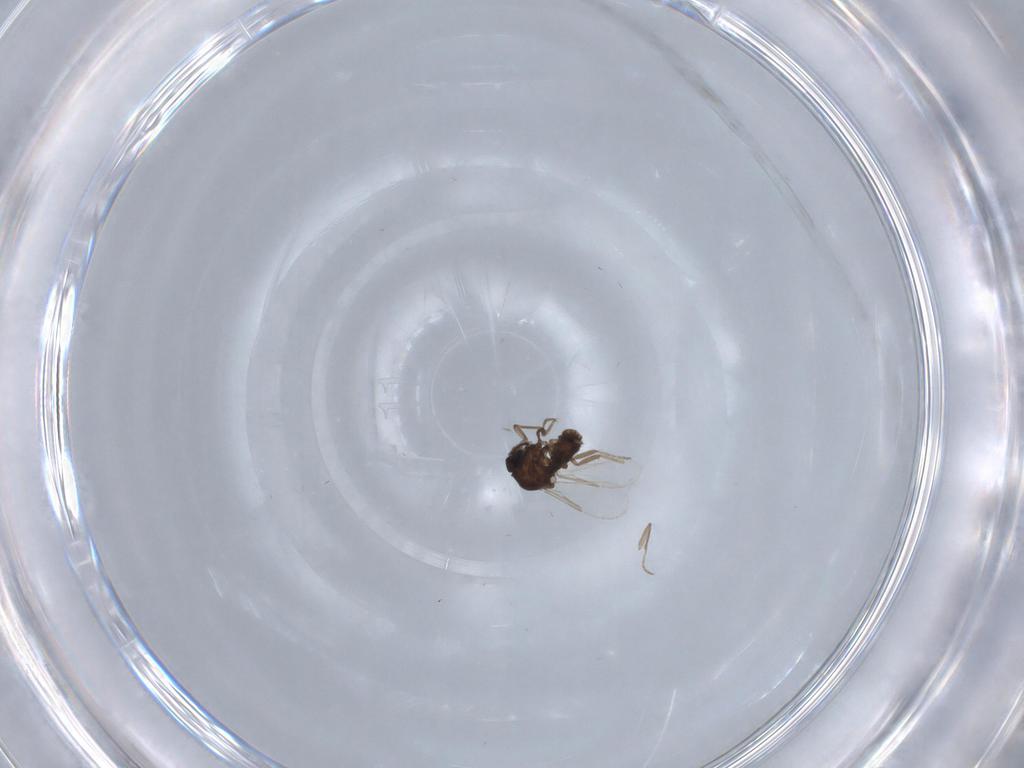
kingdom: Animalia
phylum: Arthropoda
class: Insecta
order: Diptera
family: Ceratopogonidae
